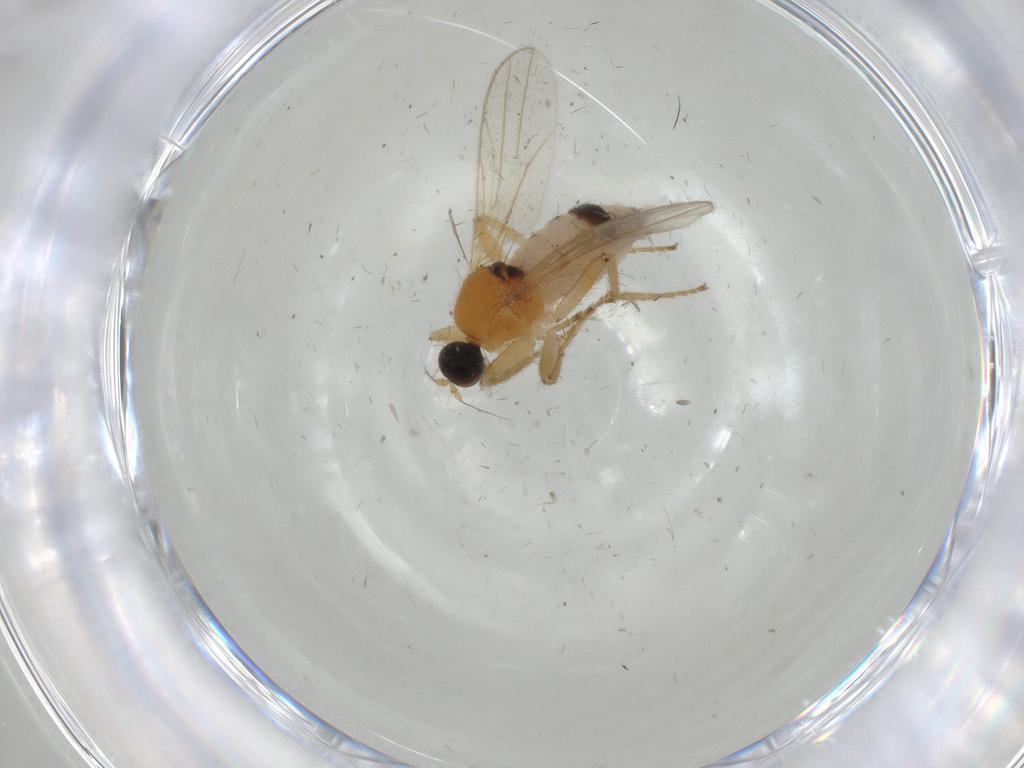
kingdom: Animalia
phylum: Arthropoda
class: Insecta
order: Diptera
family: Hybotidae
